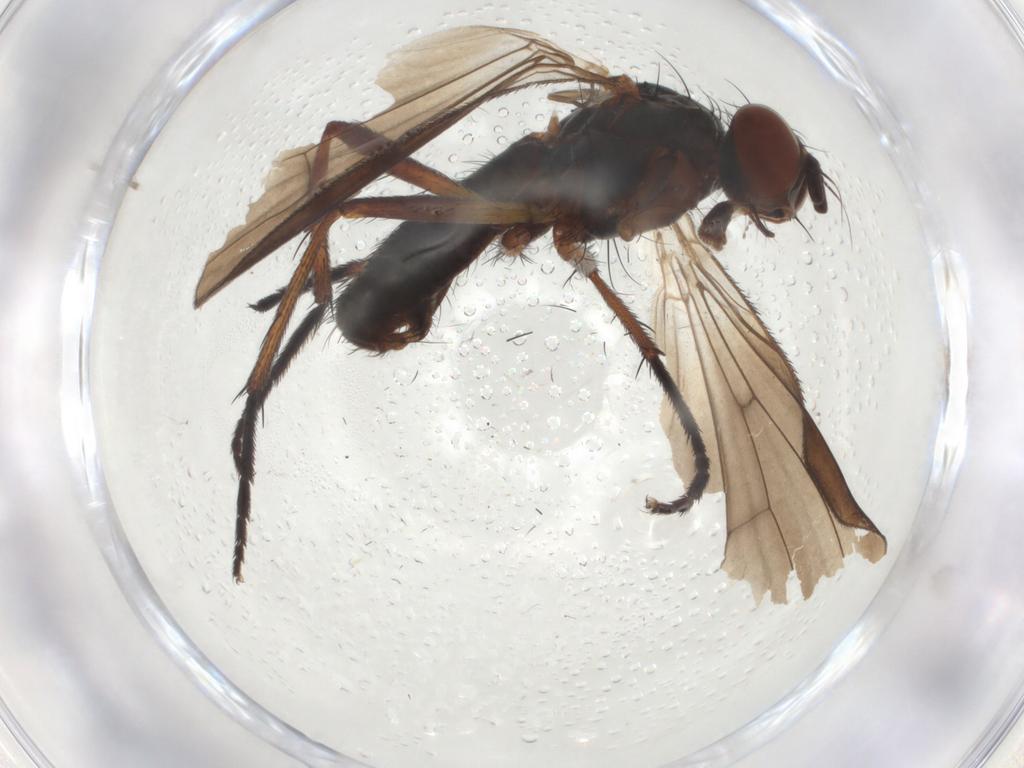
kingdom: Animalia
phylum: Arthropoda
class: Insecta
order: Diptera
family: Anthomyiidae
